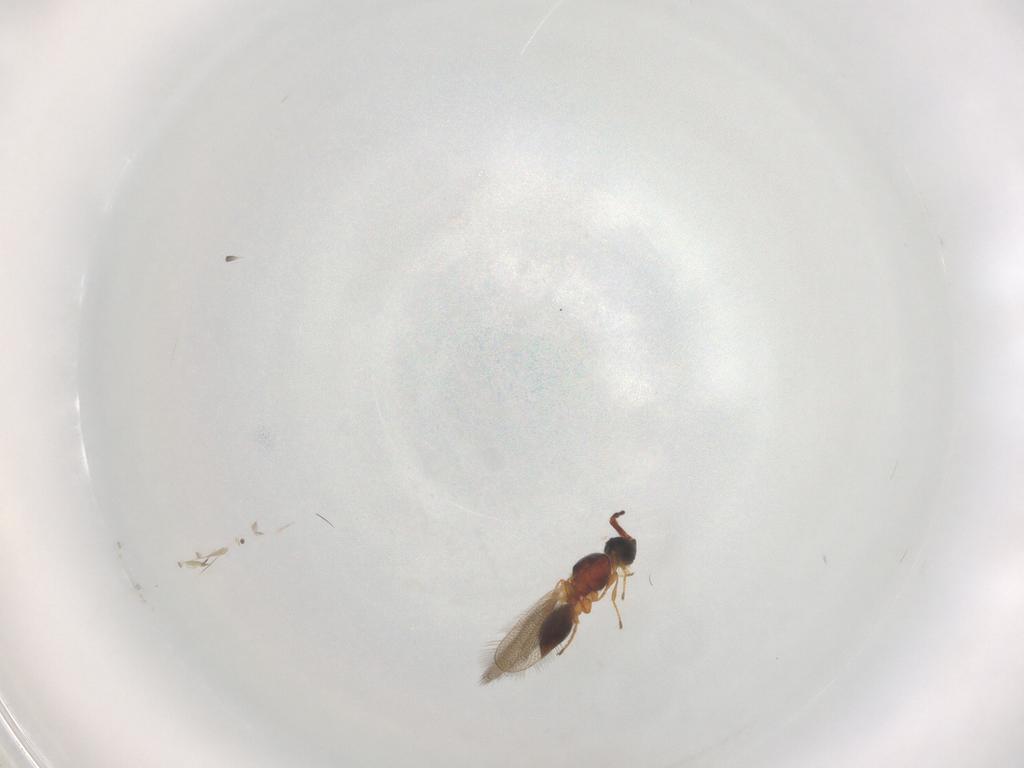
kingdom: Animalia
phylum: Arthropoda
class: Insecta
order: Hymenoptera
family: Diapriidae
